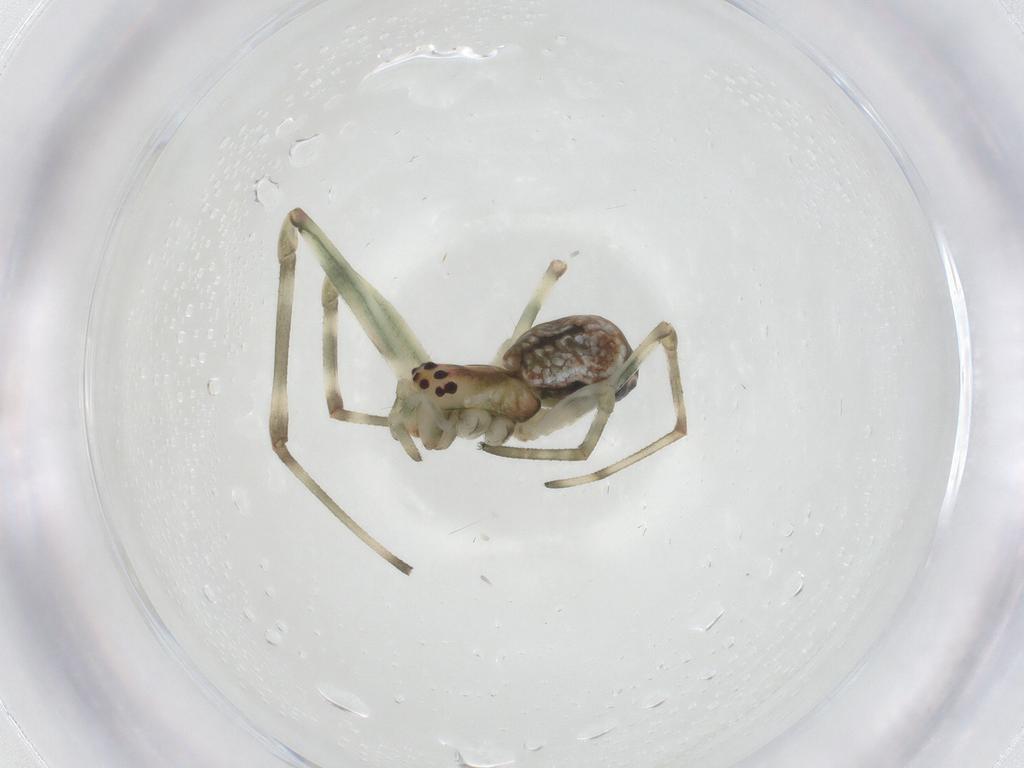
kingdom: Animalia
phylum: Arthropoda
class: Arachnida
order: Araneae
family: Tetragnathidae
